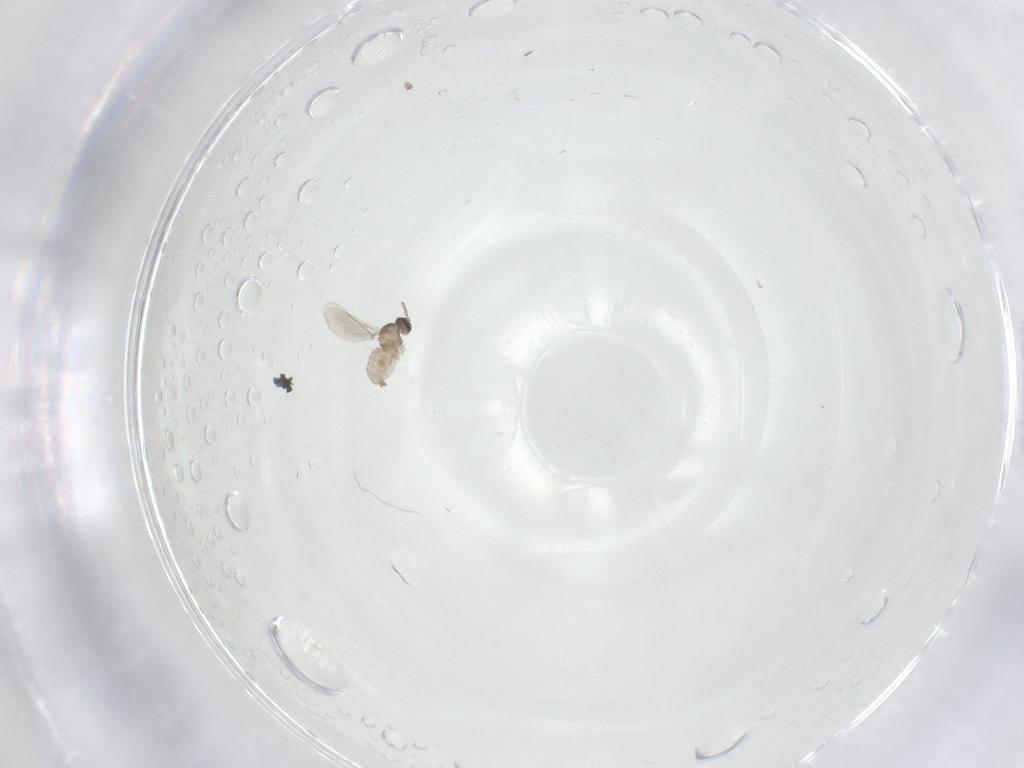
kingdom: Animalia
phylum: Arthropoda
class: Insecta
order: Diptera
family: Cecidomyiidae
